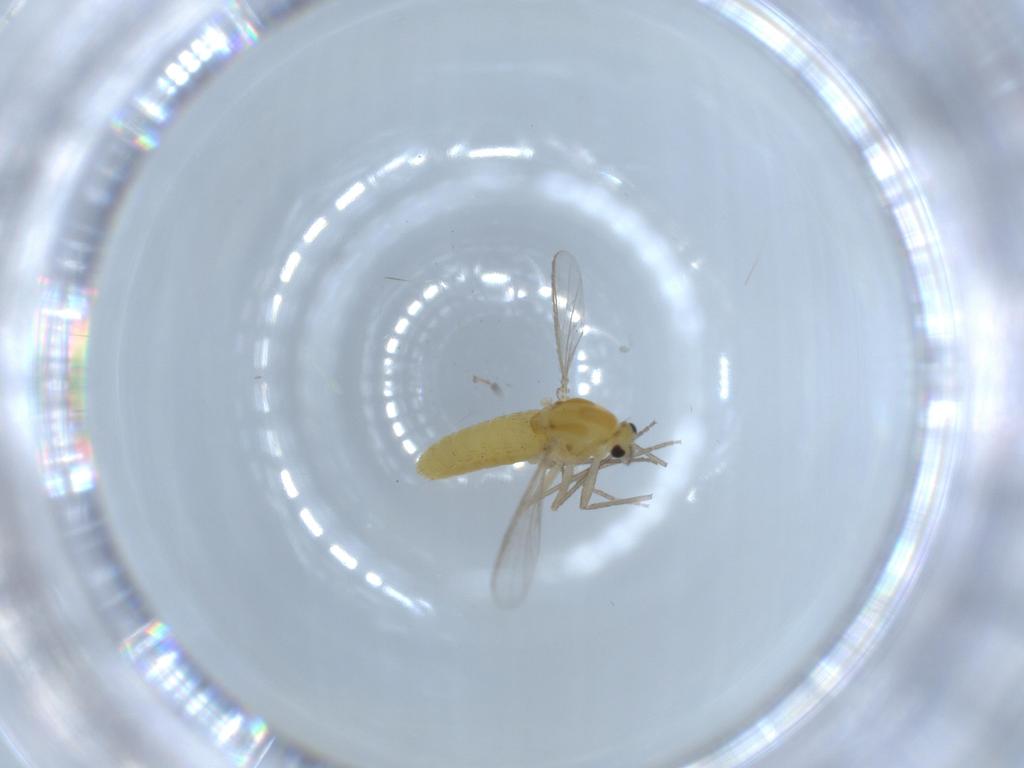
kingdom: Animalia
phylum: Arthropoda
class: Insecta
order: Diptera
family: Chironomidae
